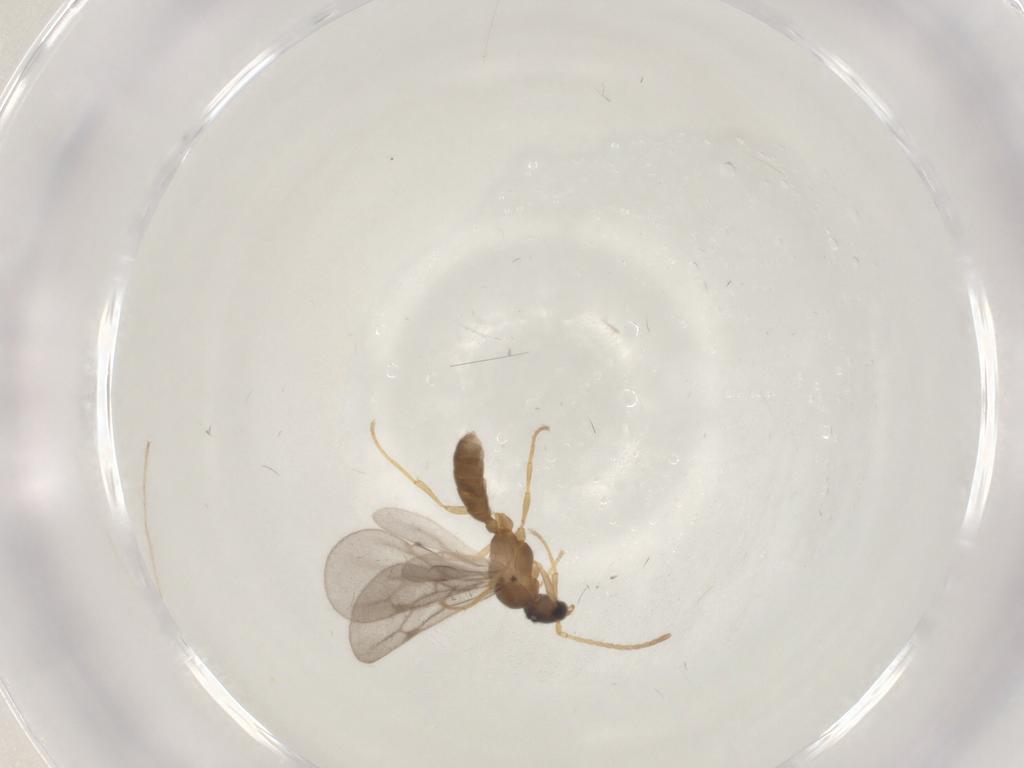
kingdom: Animalia
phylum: Arthropoda
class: Insecta
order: Hymenoptera
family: Formicidae
